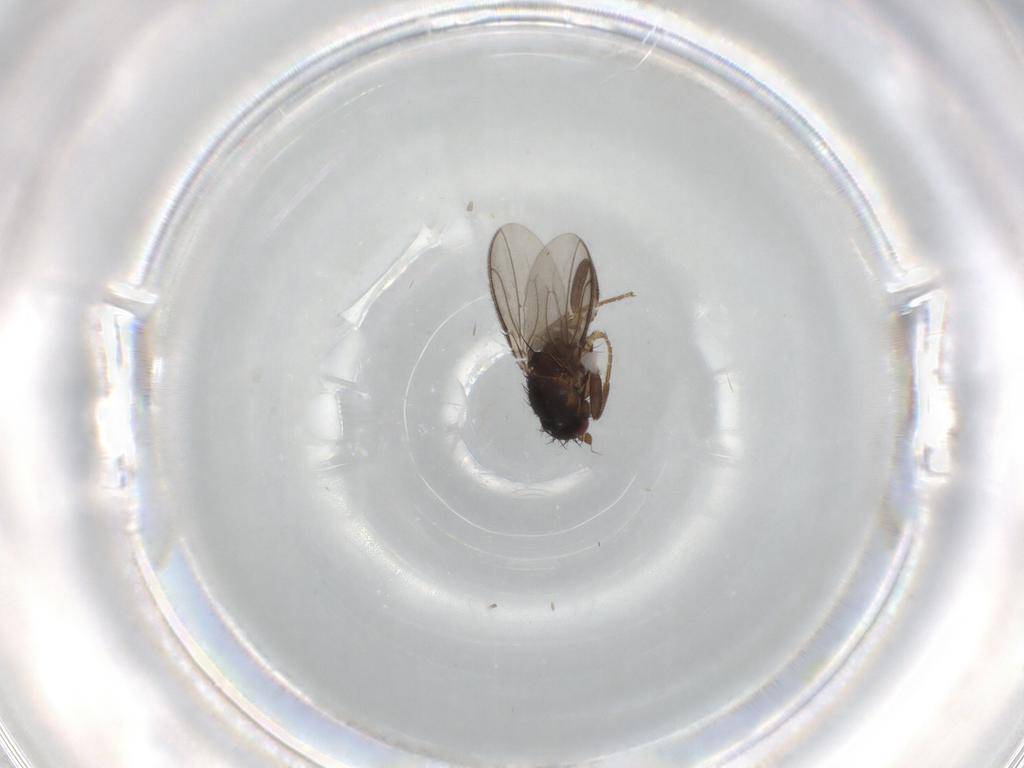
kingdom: Animalia
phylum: Arthropoda
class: Insecta
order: Diptera
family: Sphaeroceridae
